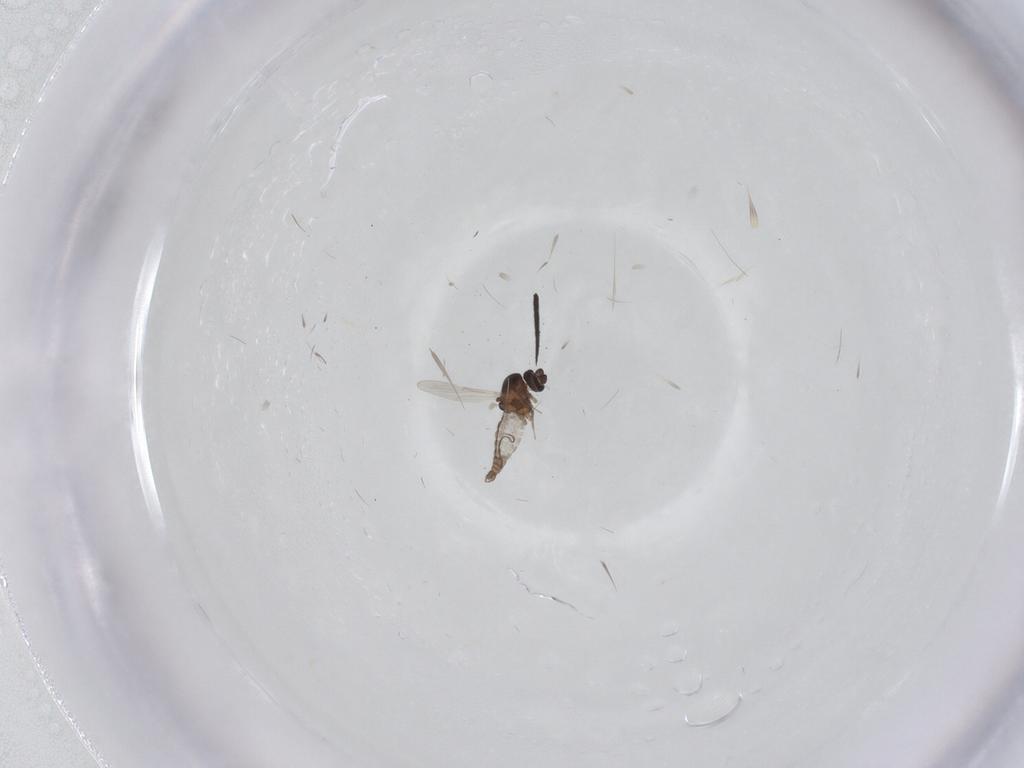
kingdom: Animalia
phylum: Arthropoda
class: Insecta
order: Diptera
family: Keroplatidae
